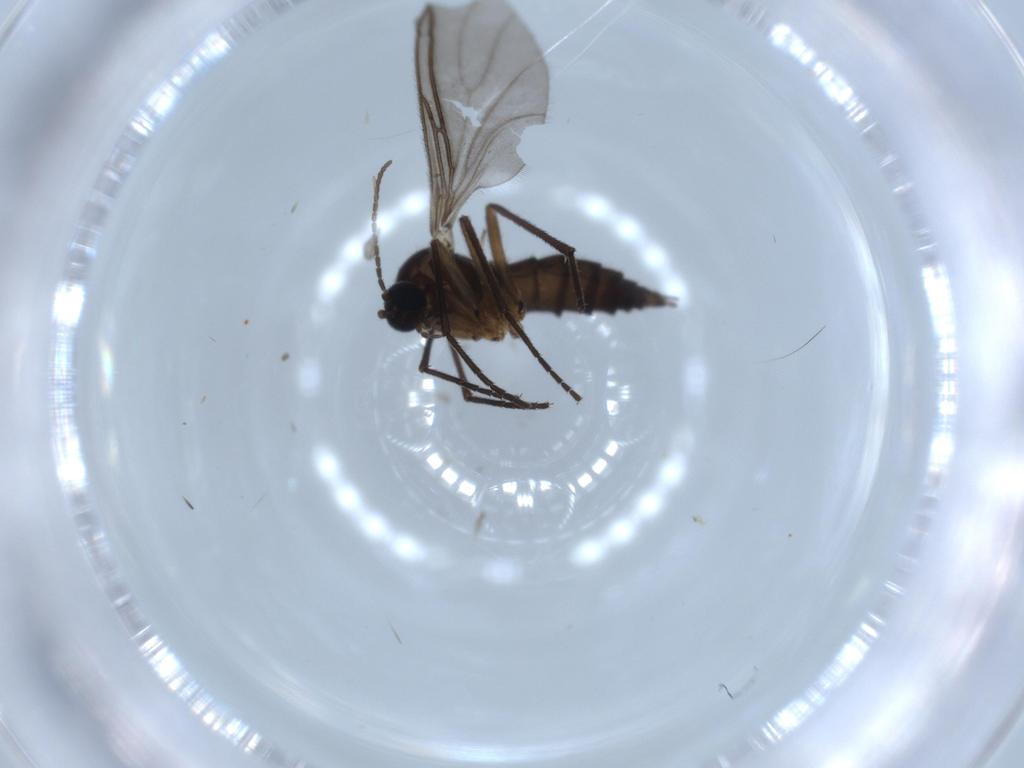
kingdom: Animalia
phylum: Arthropoda
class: Insecta
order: Diptera
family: Sciaridae
